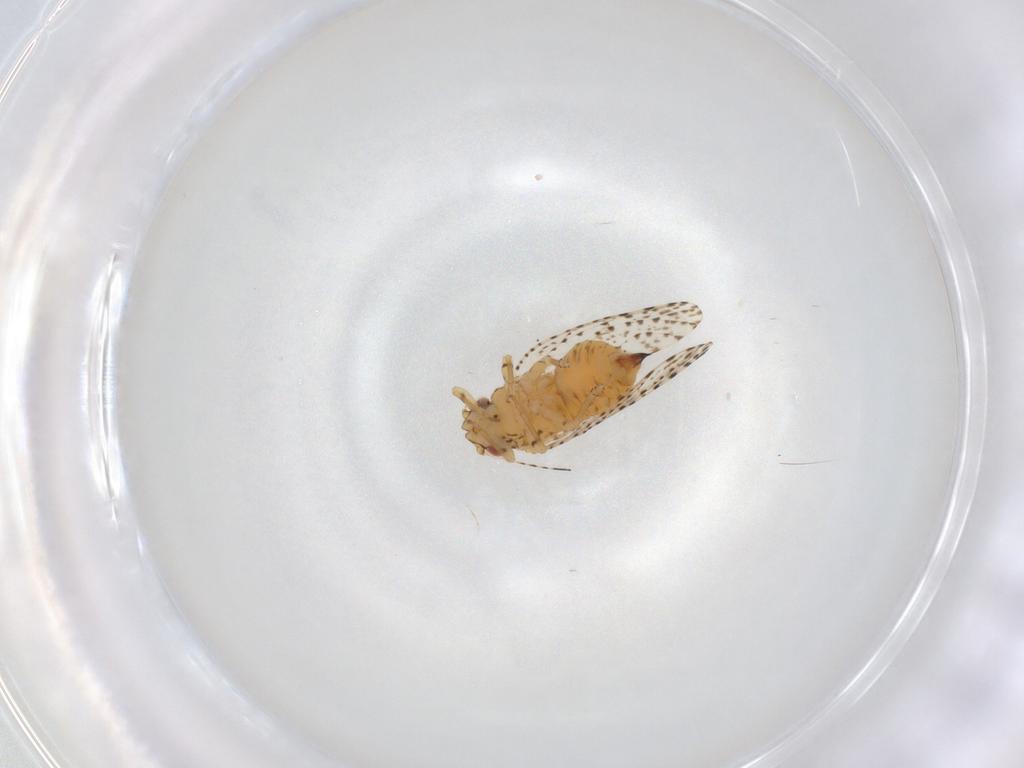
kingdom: Animalia
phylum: Arthropoda
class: Insecta
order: Hemiptera
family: Psyllidae
